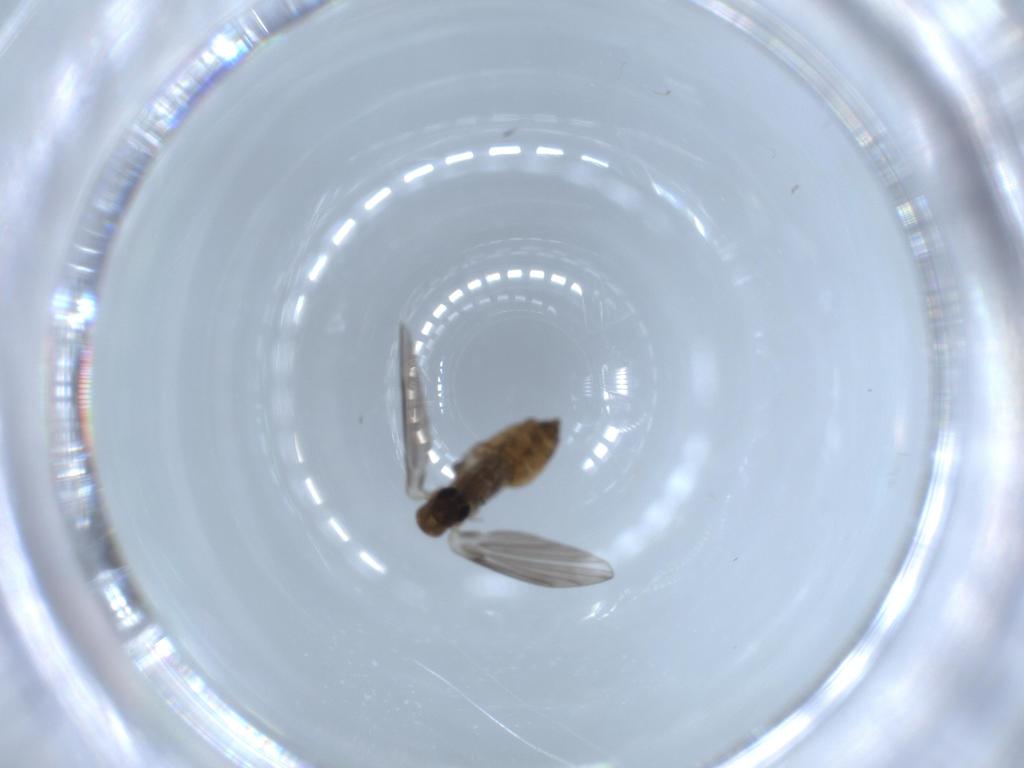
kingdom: Animalia
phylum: Arthropoda
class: Insecta
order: Diptera
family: Psychodidae
